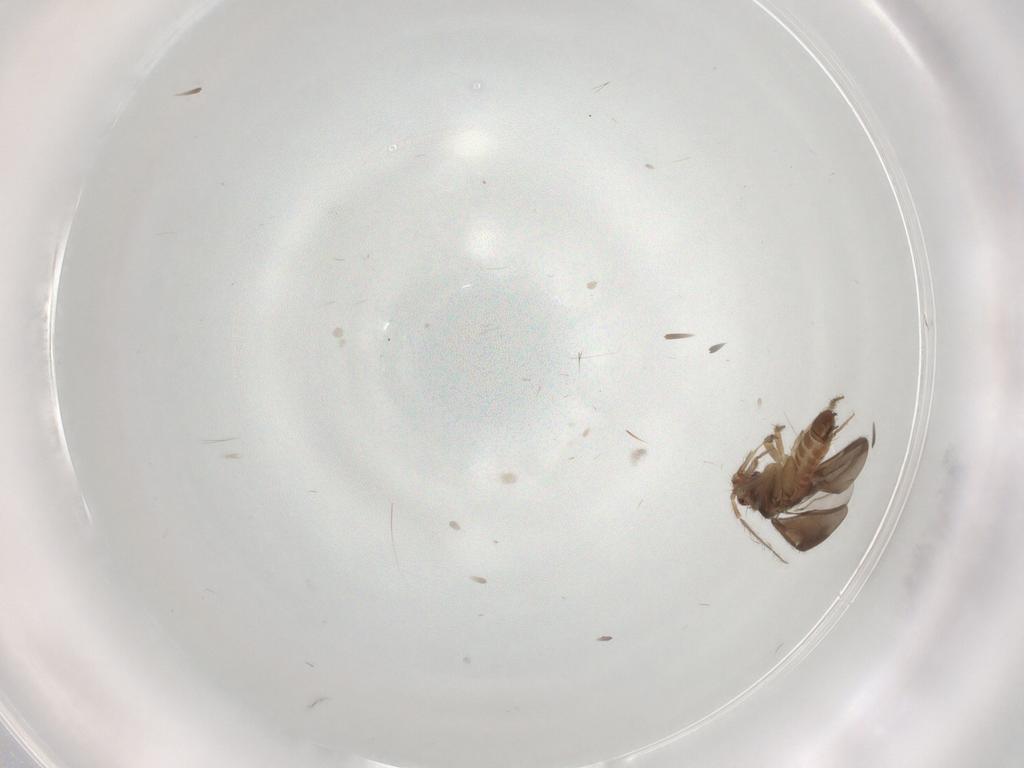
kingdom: Animalia
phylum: Arthropoda
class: Insecta
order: Hemiptera
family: Ceratocombidae
